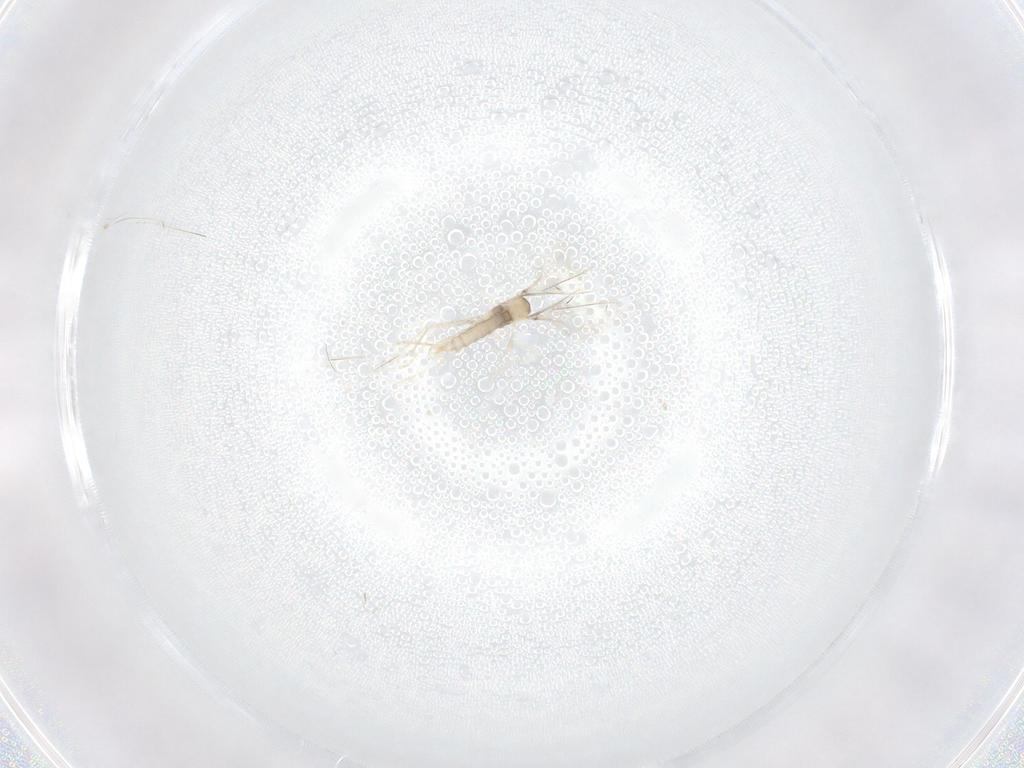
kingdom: Animalia
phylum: Arthropoda
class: Insecta
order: Diptera
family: Cecidomyiidae
